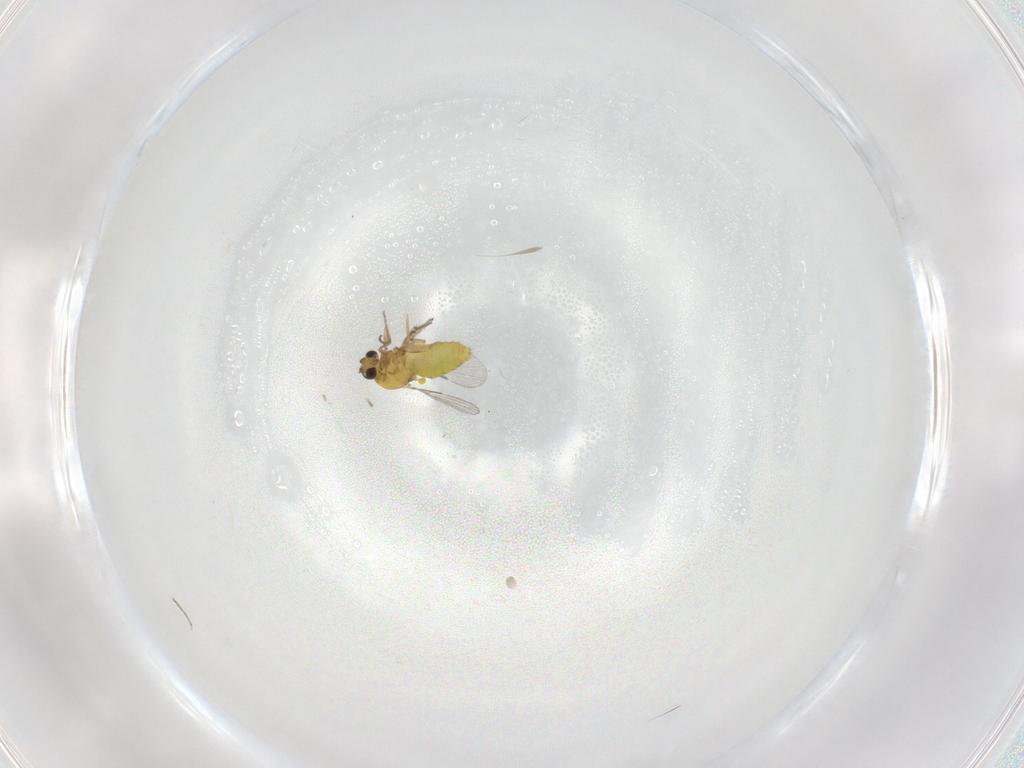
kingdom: Animalia
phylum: Arthropoda
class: Insecta
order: Diptera
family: Ceratopogonidae
